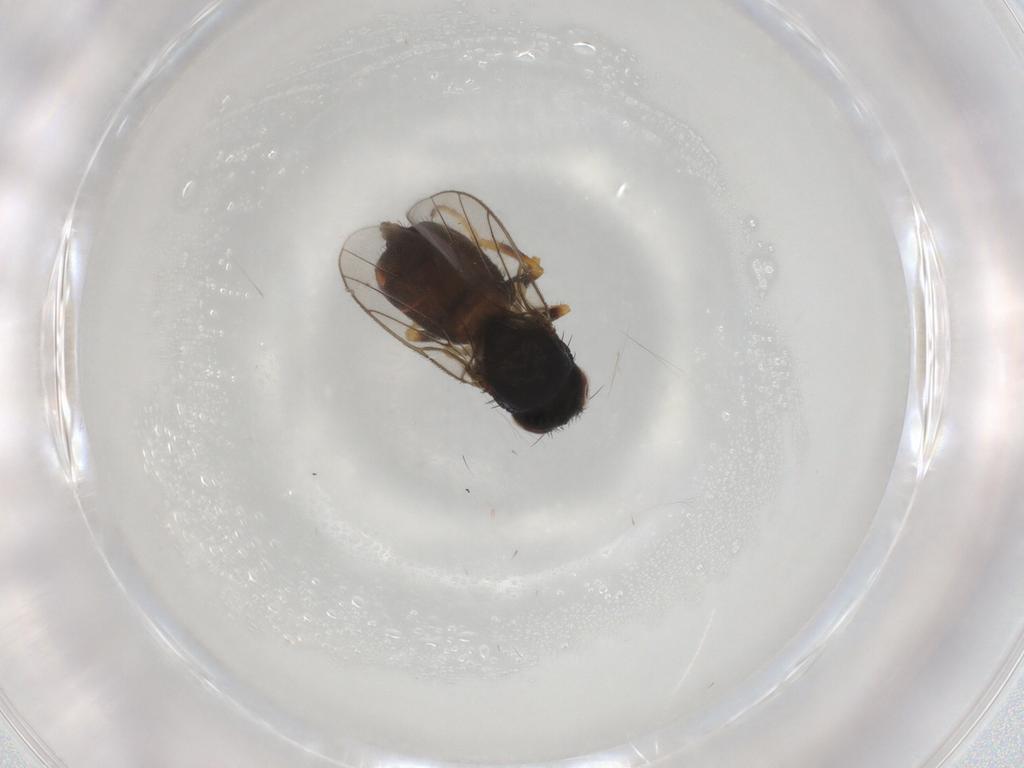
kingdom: Animalia
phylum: Arthropoda
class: Insecta
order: Diptera
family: Chloropidae
